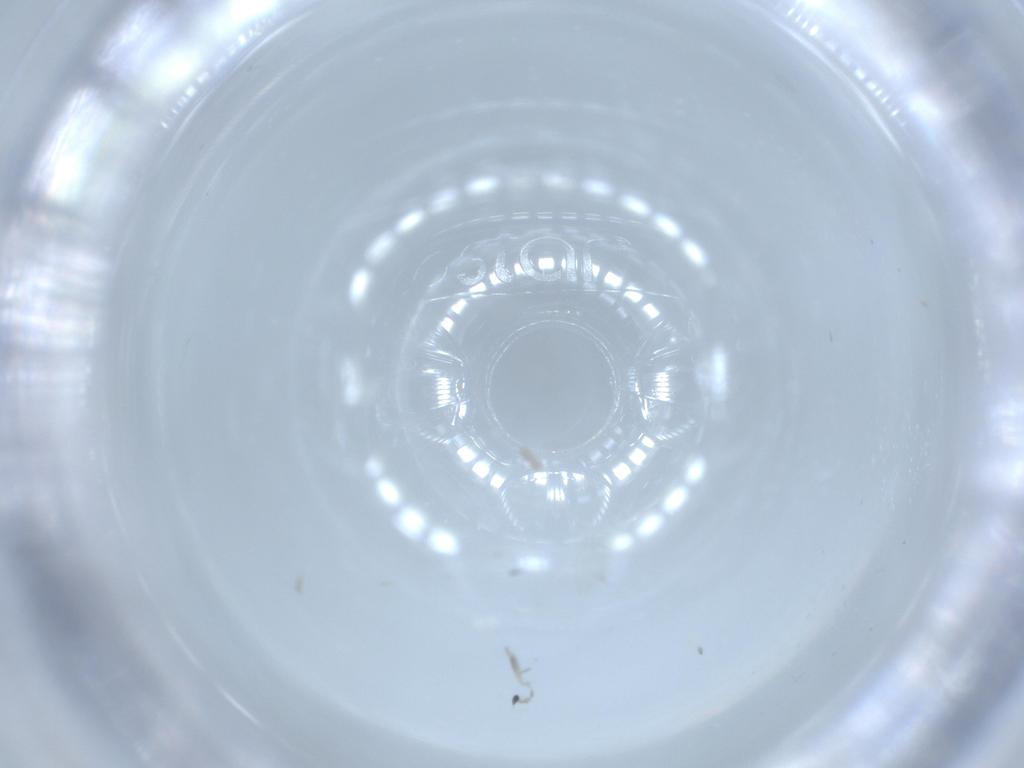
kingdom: Animalia
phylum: Arthropoda
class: Insecta
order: Diptera
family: Cecidomyiidae
